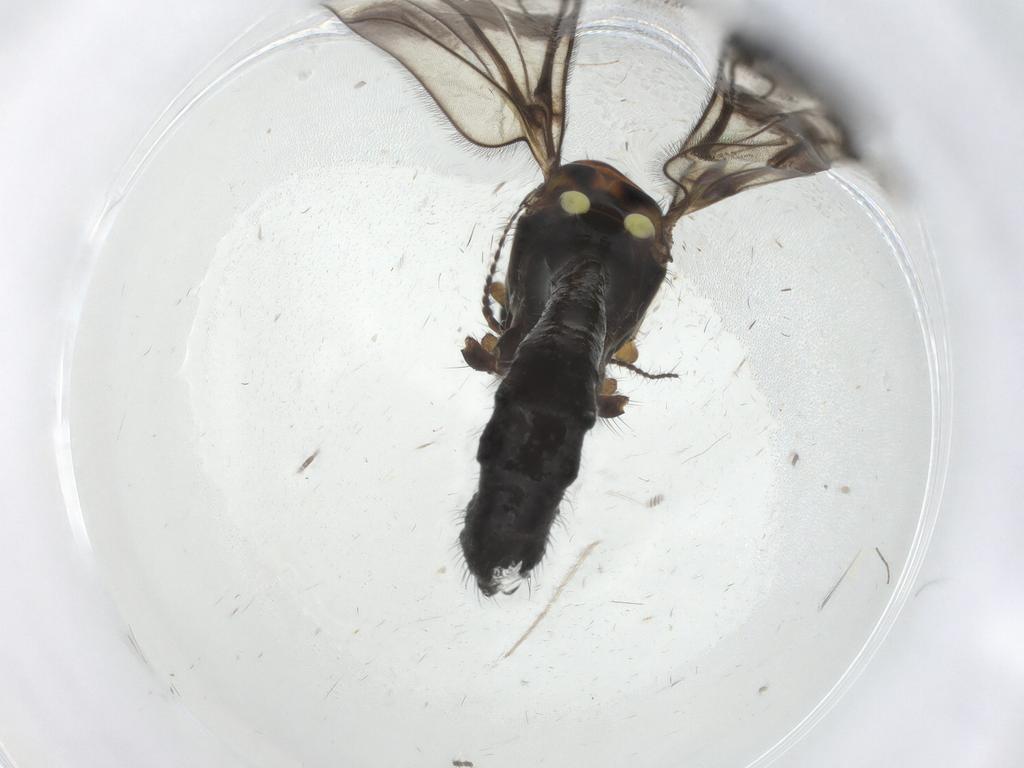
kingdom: Animalia
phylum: Arthropoda
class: Insecta
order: Diptera
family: Limoniidae
